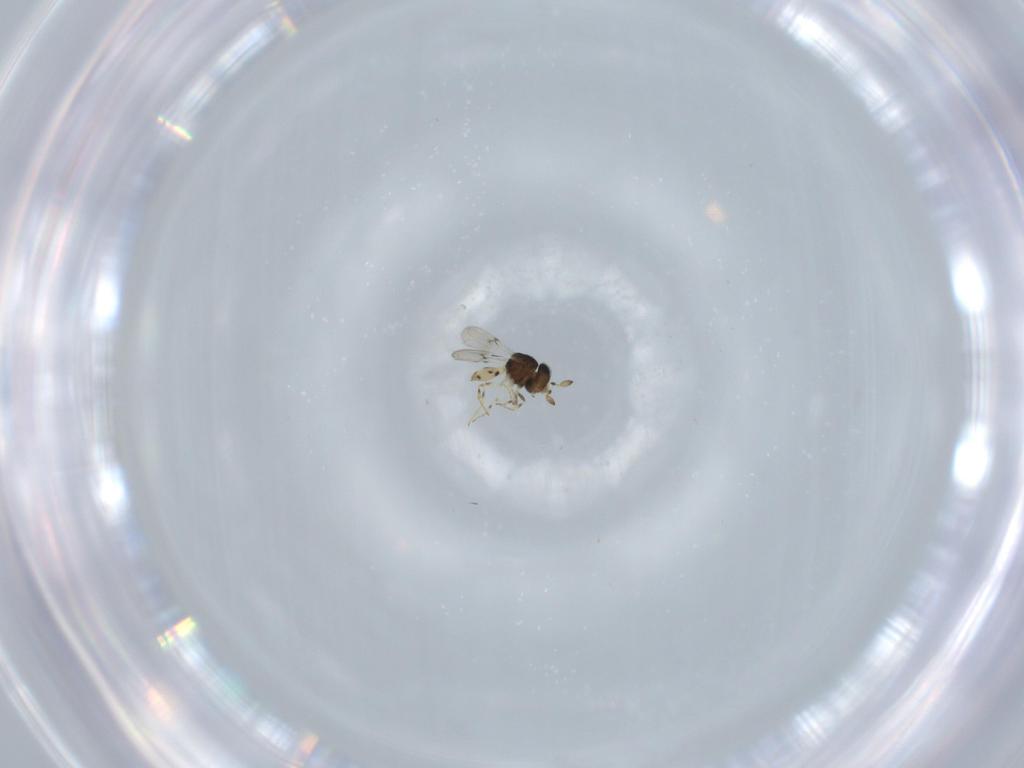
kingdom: Animalia
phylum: Arthropoda
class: Insecta
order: Hymenoptera
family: Scelionidae
